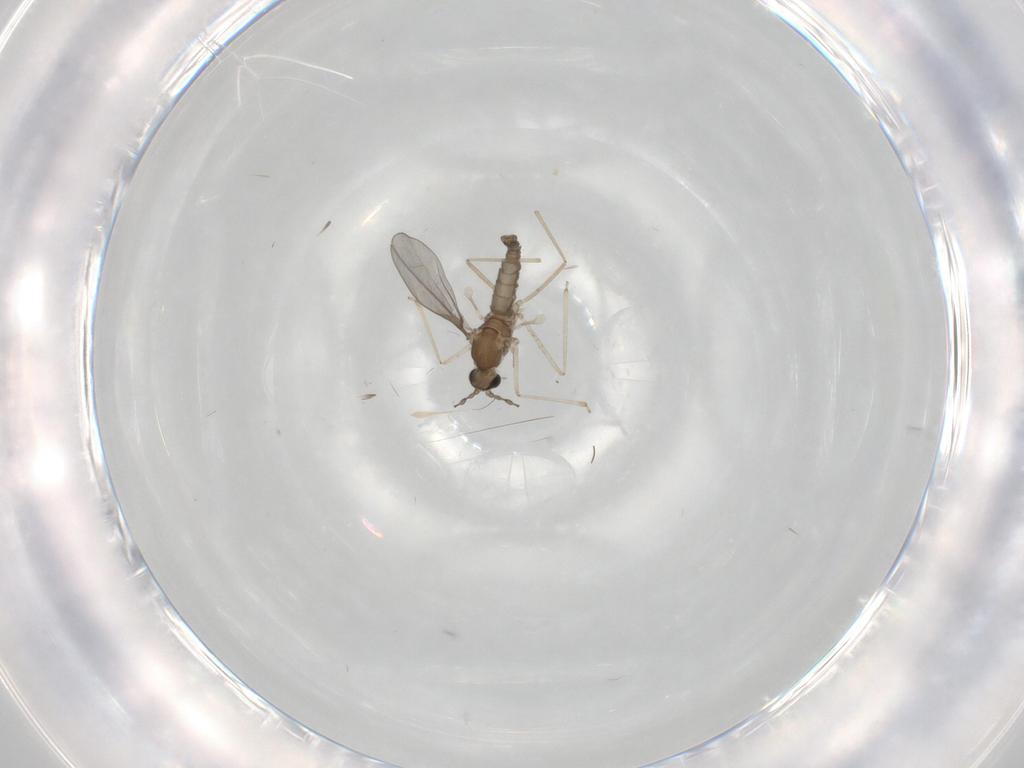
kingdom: Animalia
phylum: Arthropoda
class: Insecta
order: Diptera
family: Cecidomyiidae
